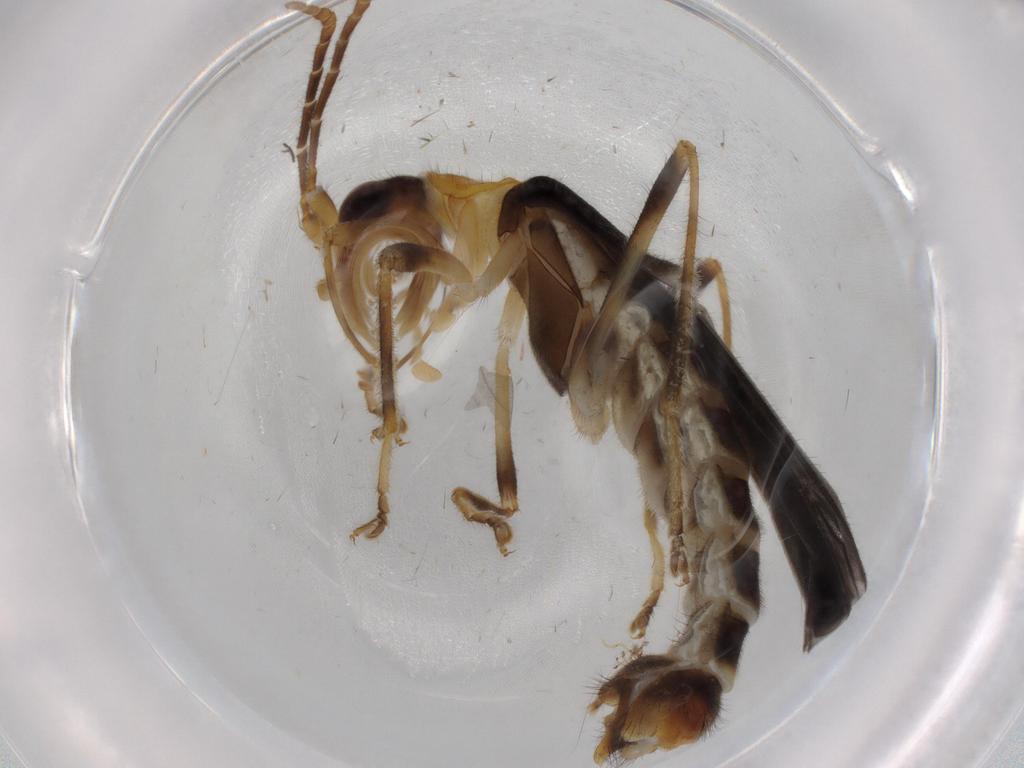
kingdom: Animalia
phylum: Arthropoda
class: Insecta
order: Coleoptera
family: Cantharidae
